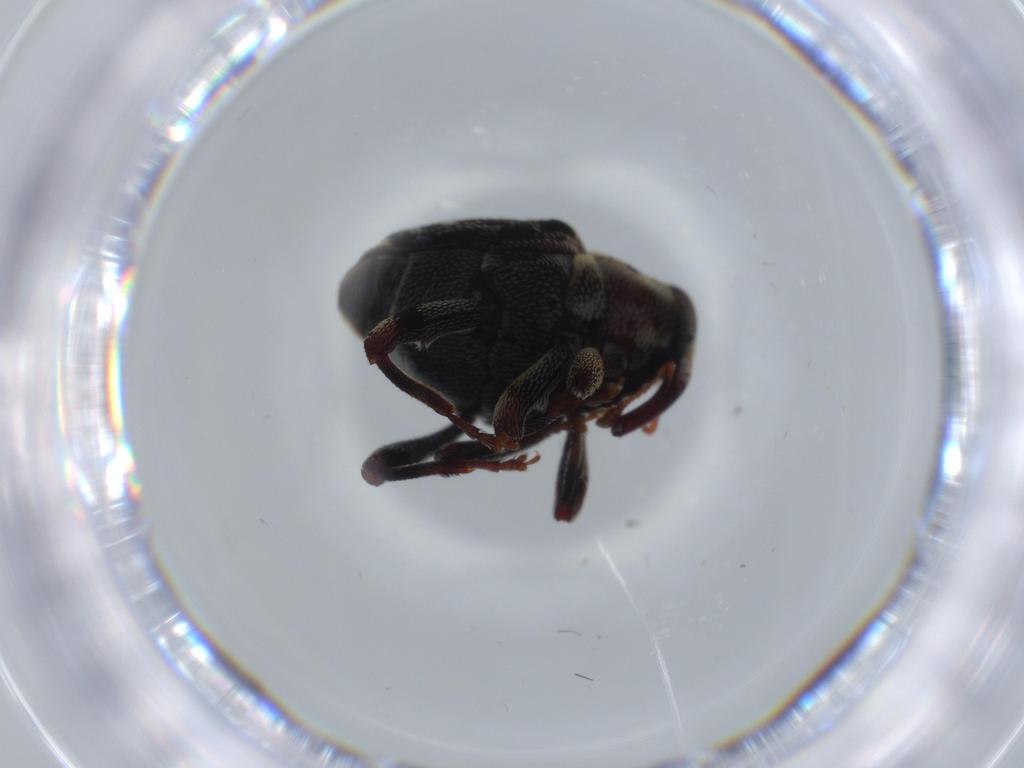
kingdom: Animalia
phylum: Arthropoda
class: Insecta
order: Coleoptera
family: Curculionidae
